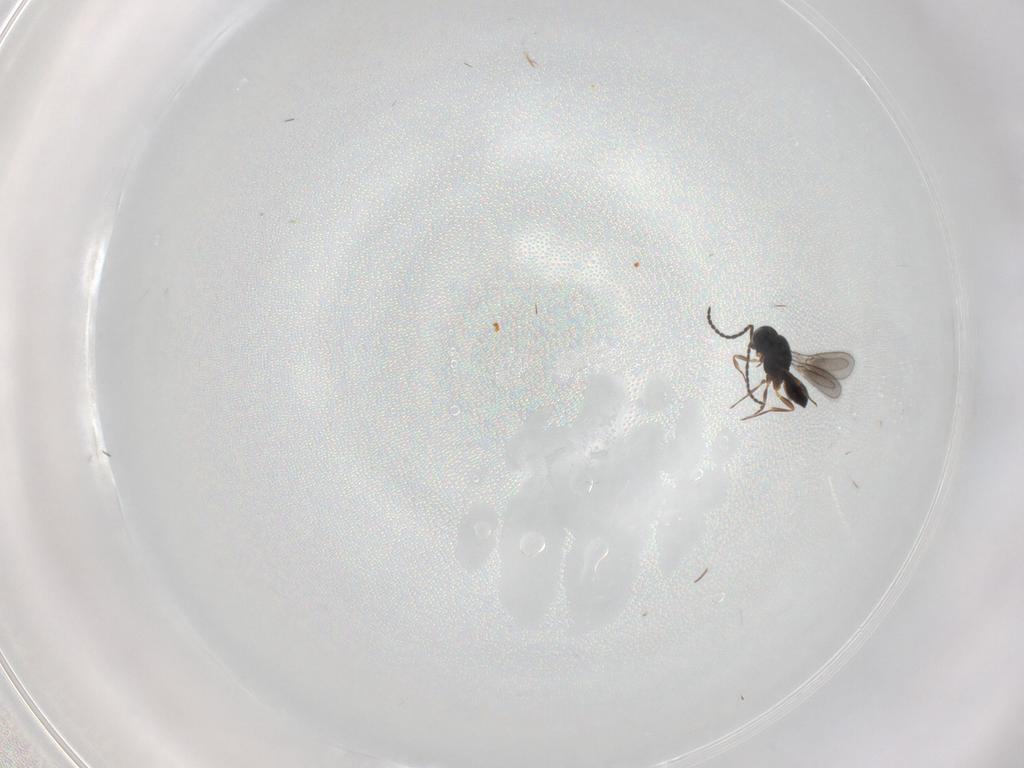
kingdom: Animalia
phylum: Arthropoda
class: Insecta
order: Hymenoptera
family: Scelionidae
